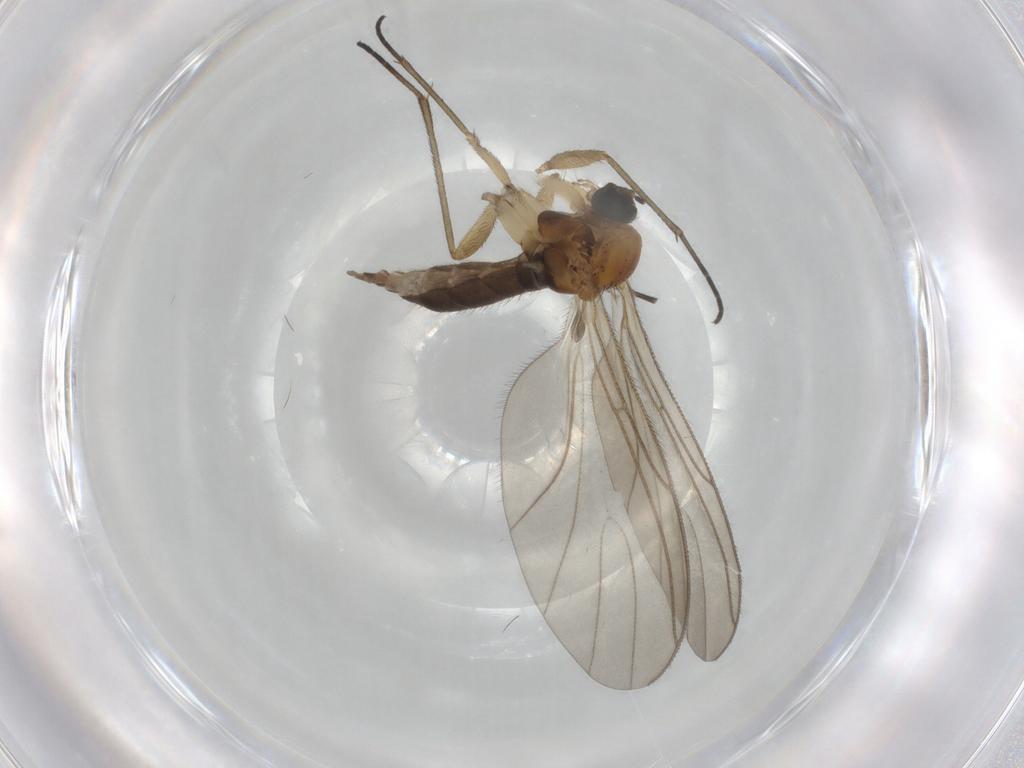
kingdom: Animalia
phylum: Arthropoda
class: Insecta
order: Diptera
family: Sciaridae
